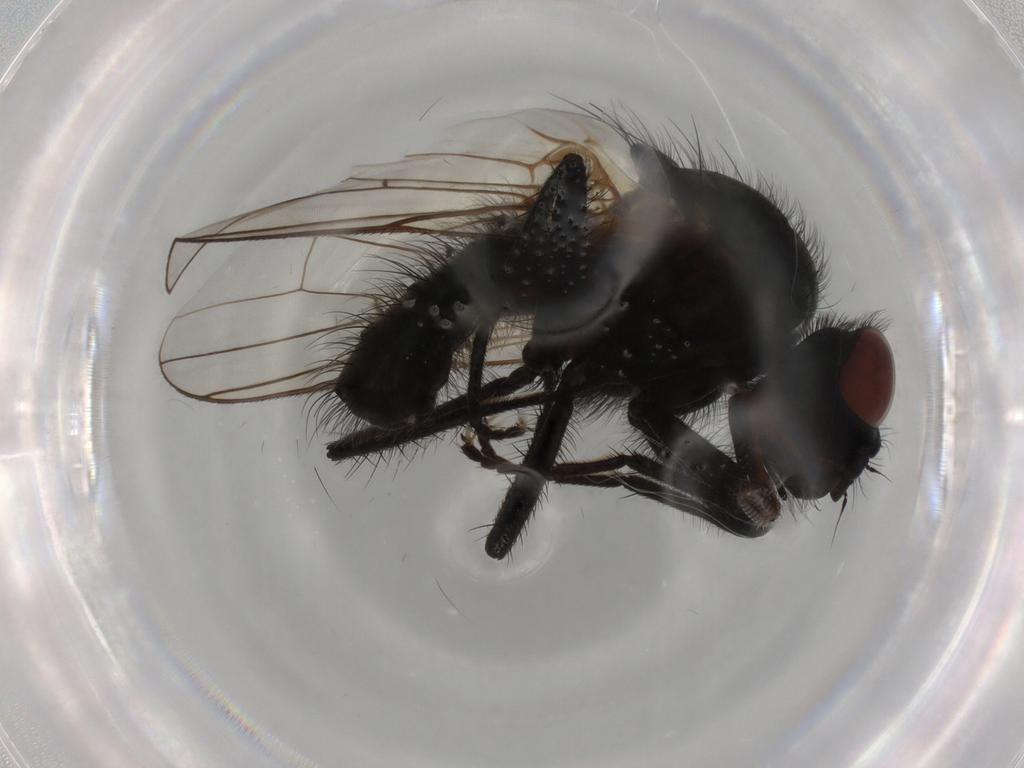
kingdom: Animalia
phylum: Arthropoda
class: Insecta
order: Diptera
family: Anthomyiidae
